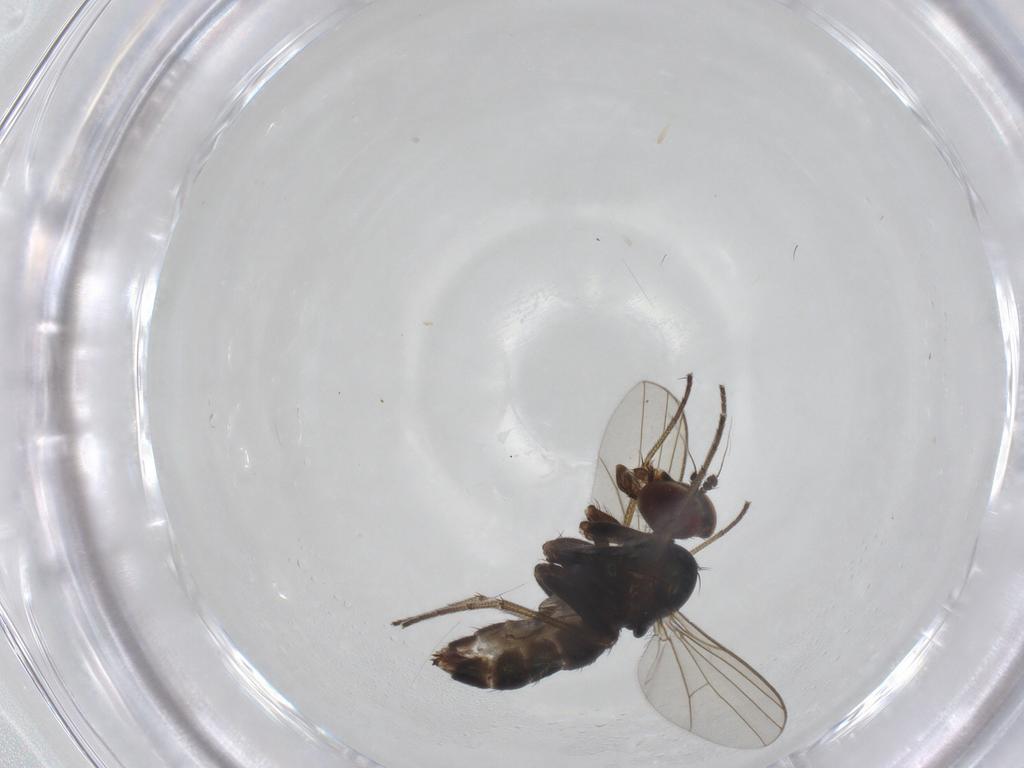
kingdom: Animalia
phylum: Arthropoda
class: Insecta
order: Diptera
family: Dolichopodidae
